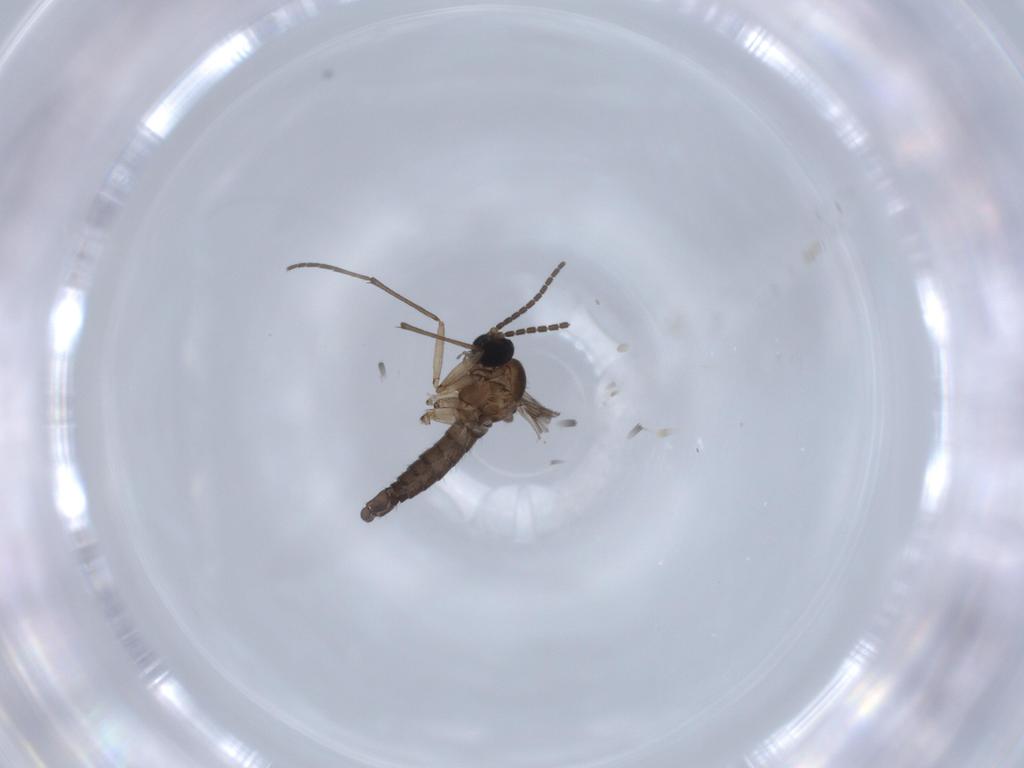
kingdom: Animalia
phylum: Arthropoda
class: Insecta
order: Diptera
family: Sciaridae
